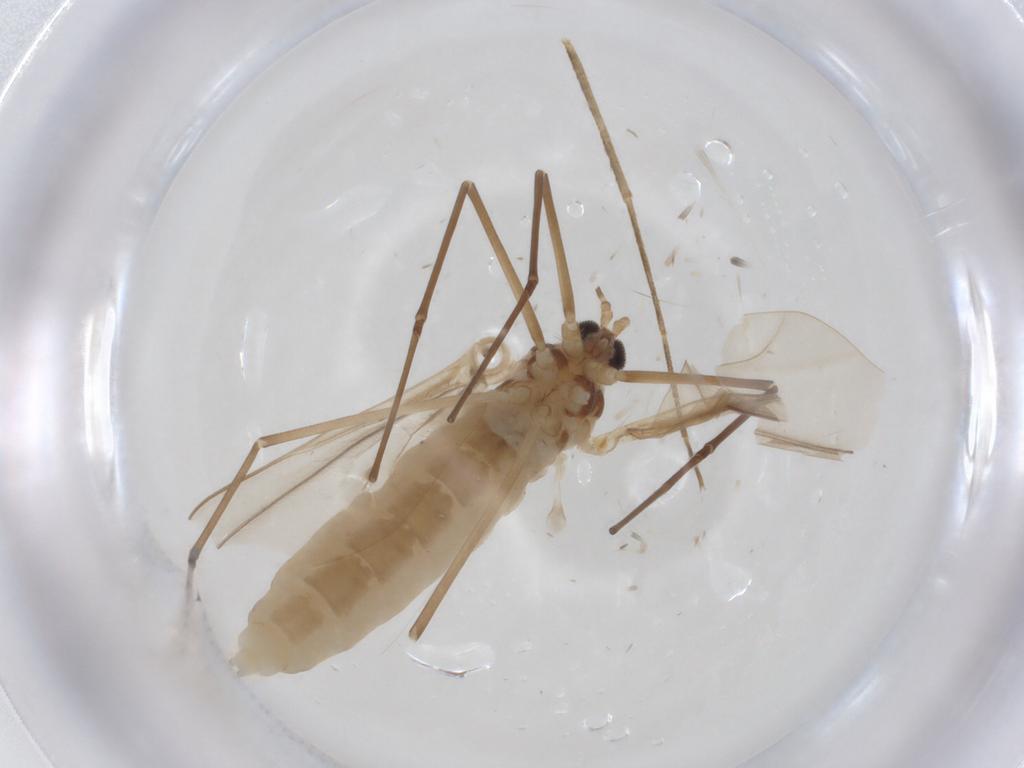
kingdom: Animalia
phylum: Arthropoda
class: Insecta
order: Diptera
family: Cecidomyiidae
